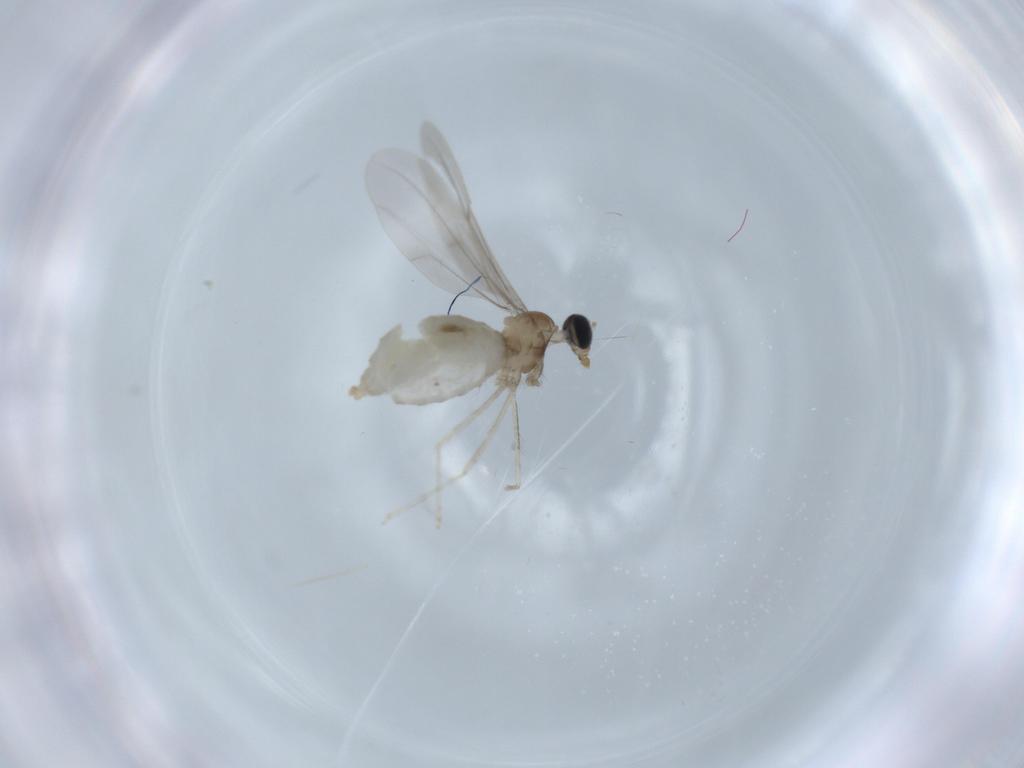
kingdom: Animalia
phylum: Arthropoda
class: Insecta
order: Diptera
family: Cecidomyiidae
